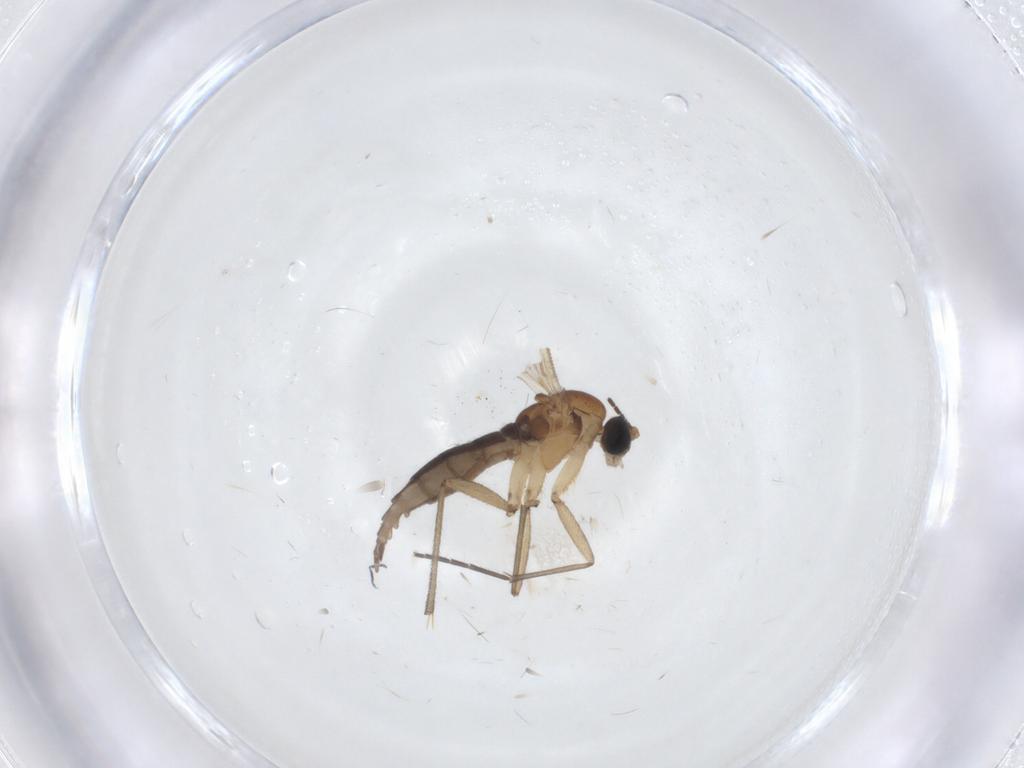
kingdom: Animalia
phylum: Arthropoda
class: Insecta
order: Diptera
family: Sciaridae
